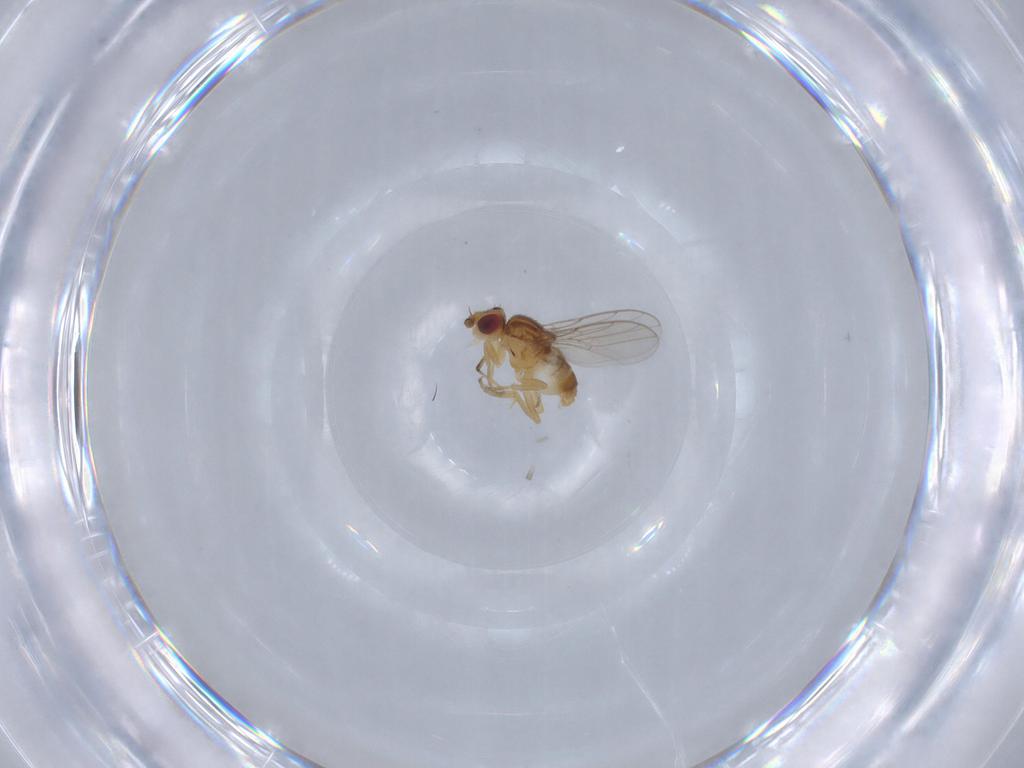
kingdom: Animalia
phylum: Arthropoda
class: Insecta
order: Diptera
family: Chloropidae
